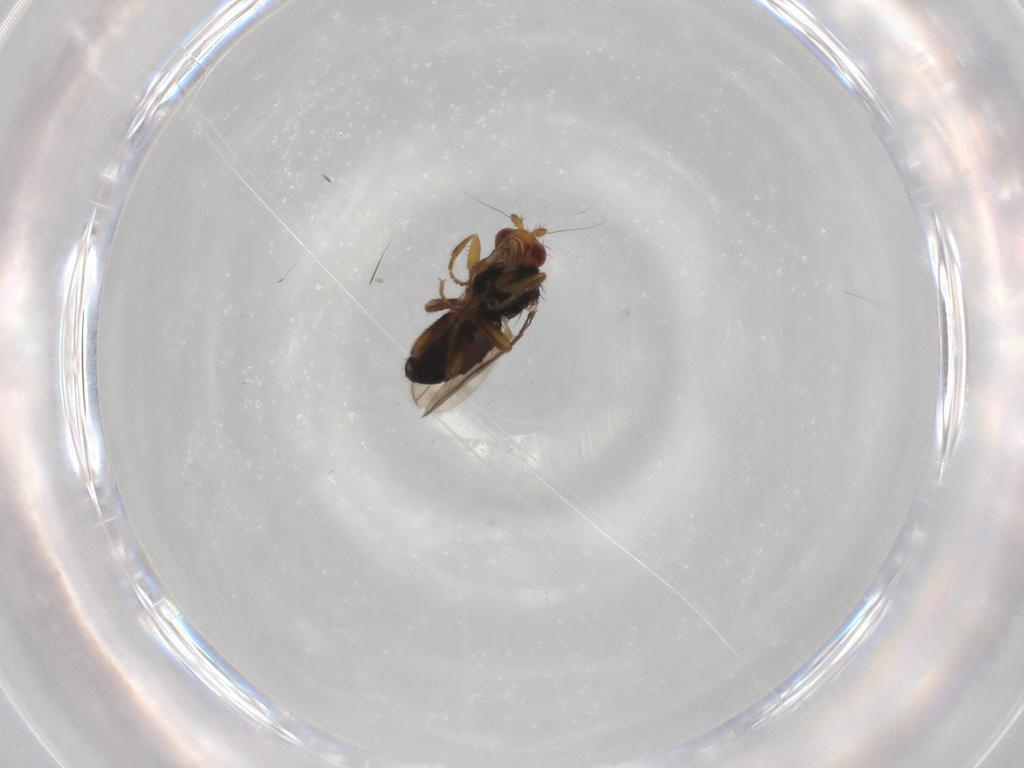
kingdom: Animalia
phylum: Arthropoda
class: Insecta
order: Diptera
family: Sphaeroceridae
